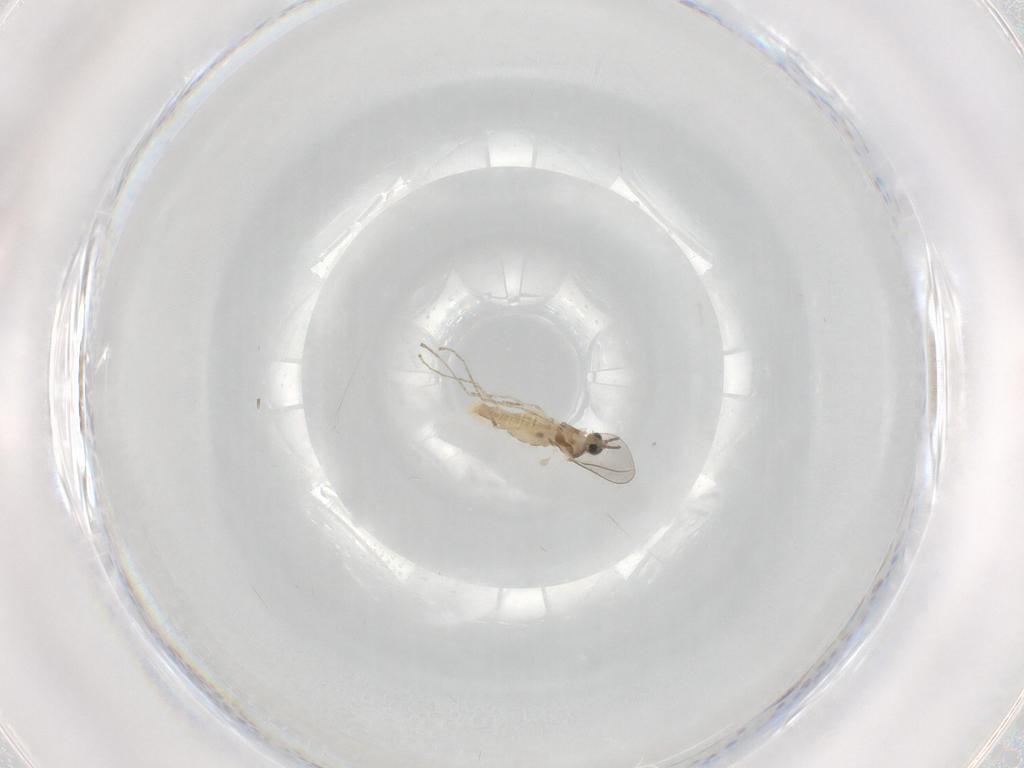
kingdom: Animalia
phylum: Arthropoda
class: Insecta
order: Diptera
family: Cecidomyiidae
